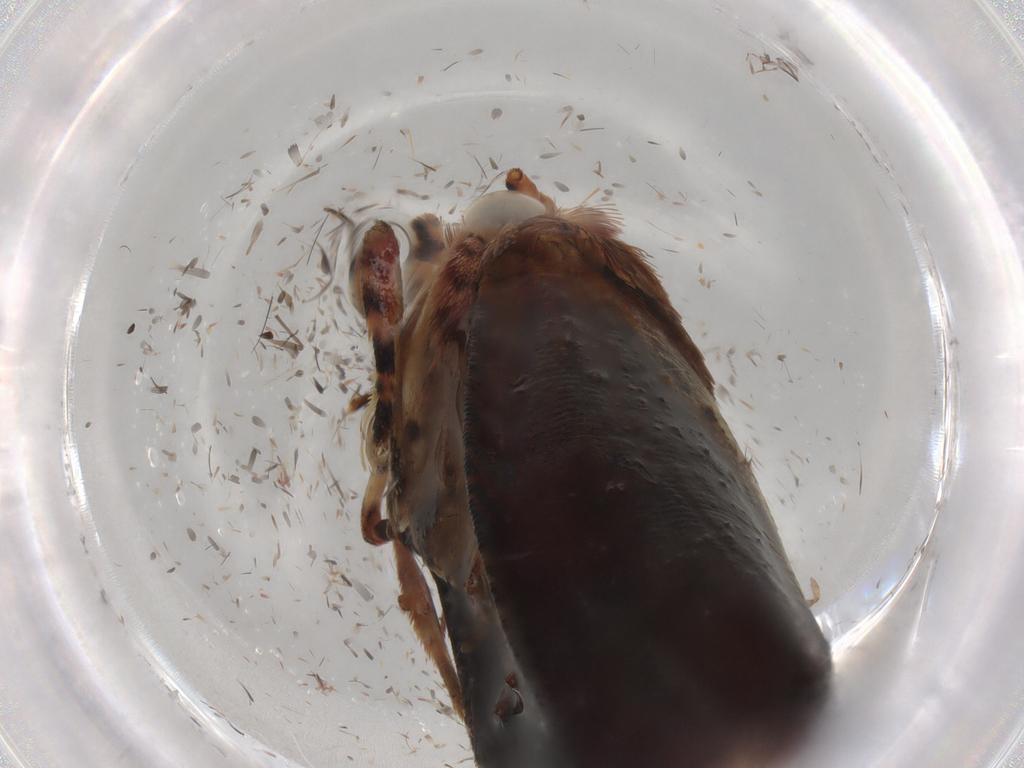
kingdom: Animalia
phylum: Arthropoda
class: Insecta
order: Lepidoptera
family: Tortricidae
